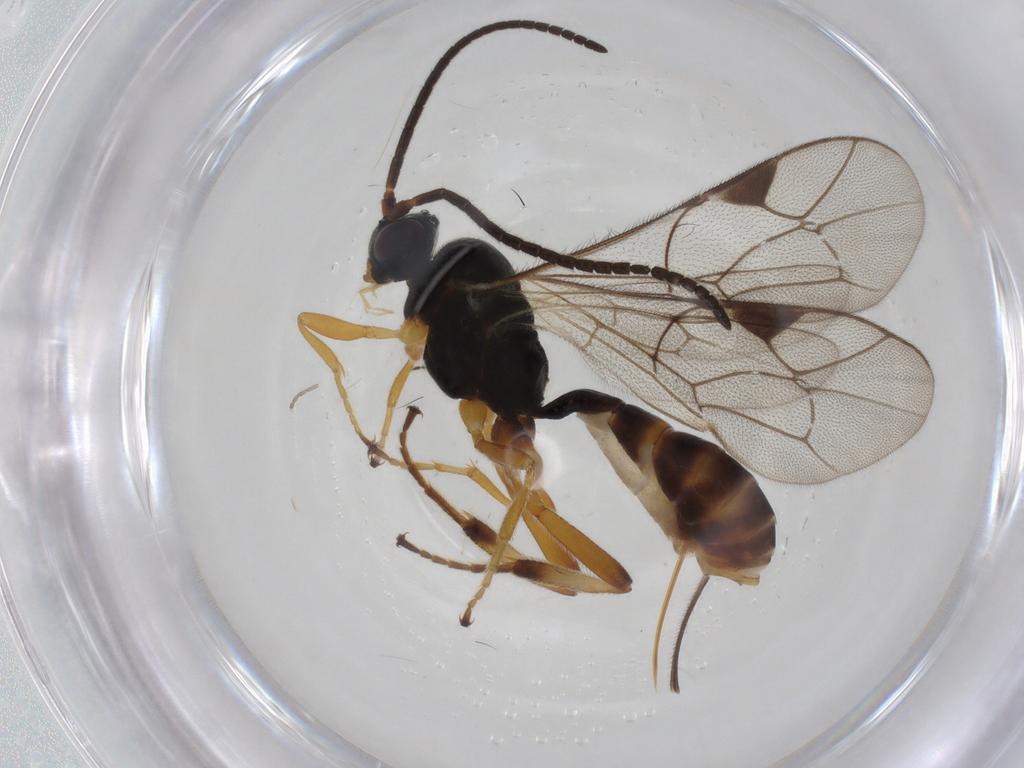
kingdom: Animalia
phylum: Arthropoda
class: Insecta
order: Hymenoptera
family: Ichneumonidae
